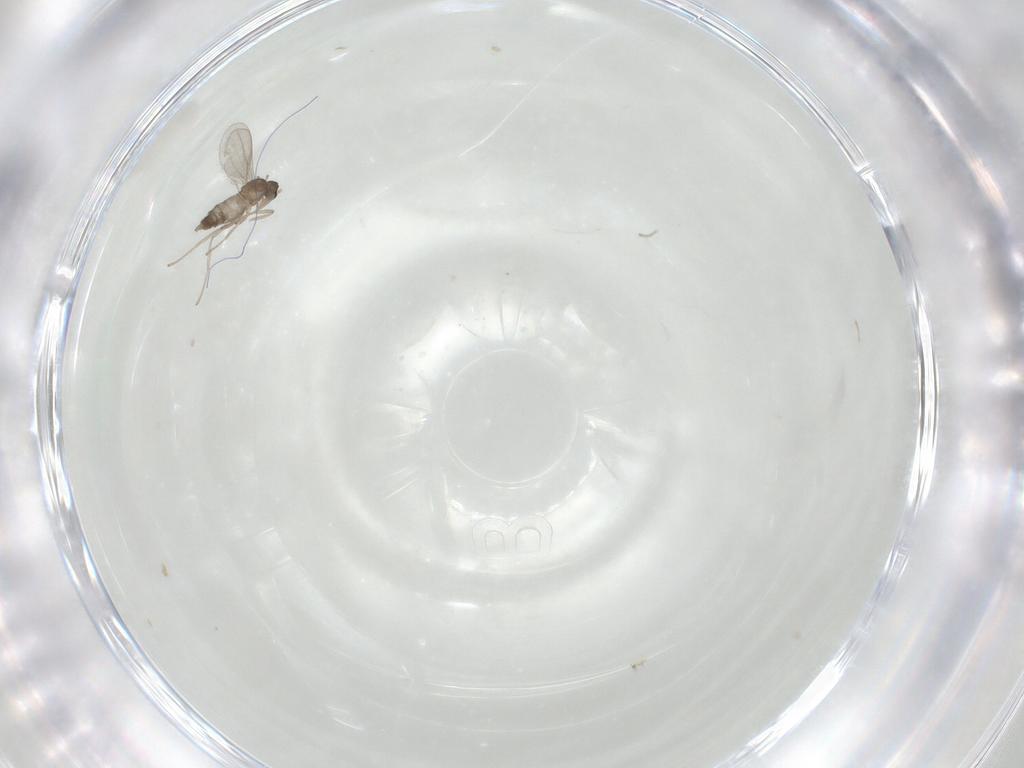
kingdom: Animalia
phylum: Arthropoda
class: Insecta
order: Diptera
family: Cecidomyiidae
